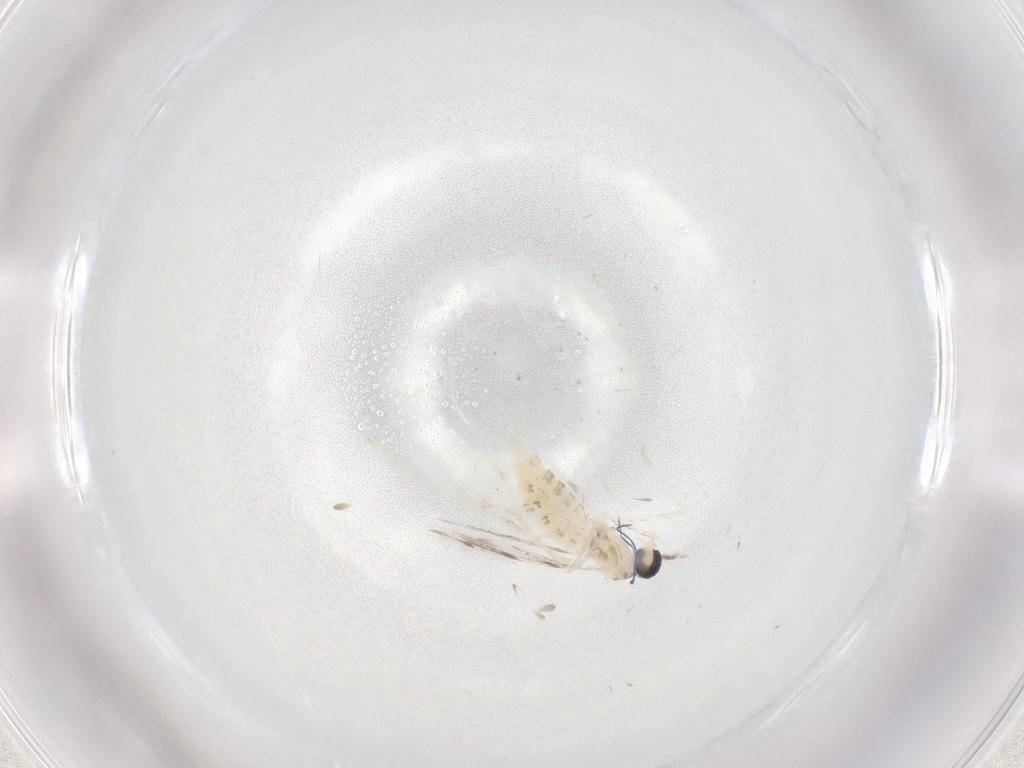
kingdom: Animalia
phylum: Arthropoda
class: Insecta
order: Diptera
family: Cecidomyiidae
